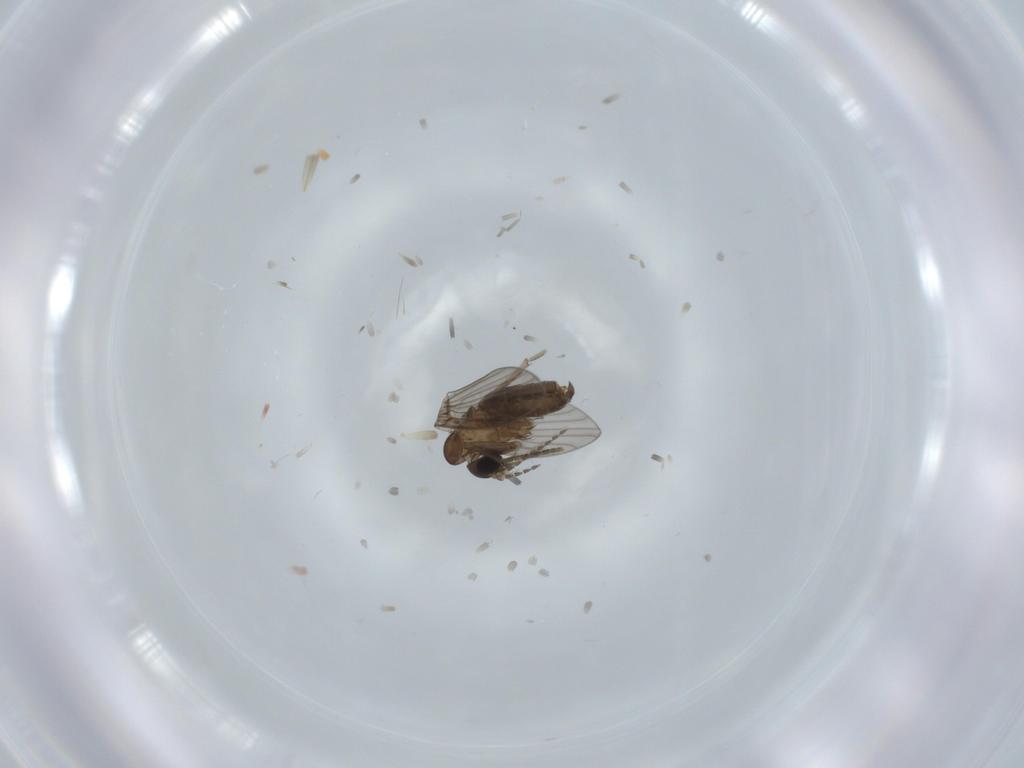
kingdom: Animalia
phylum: Arthropoda
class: Insecta
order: Diptera
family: Psychodidae
